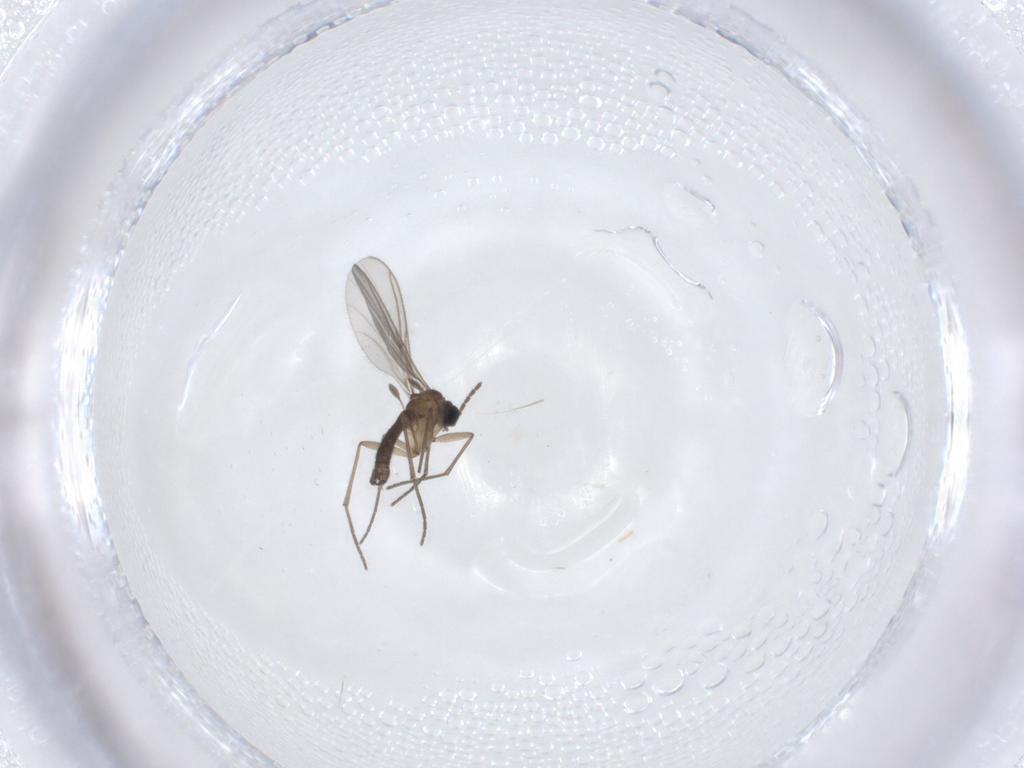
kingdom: Animalia
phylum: Arthropoda
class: Insecta
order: Diptera
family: Sciaridae
